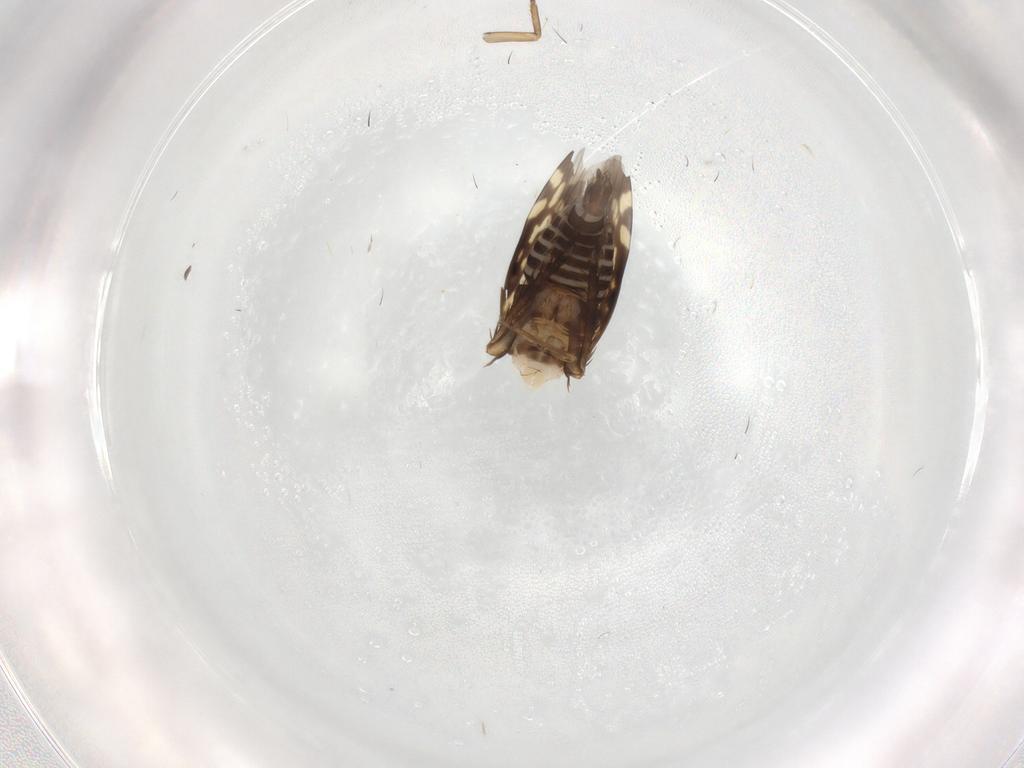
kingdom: Animalia
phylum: Arthropoda
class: Insecta
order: Hemiptera
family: Cicadellidae
